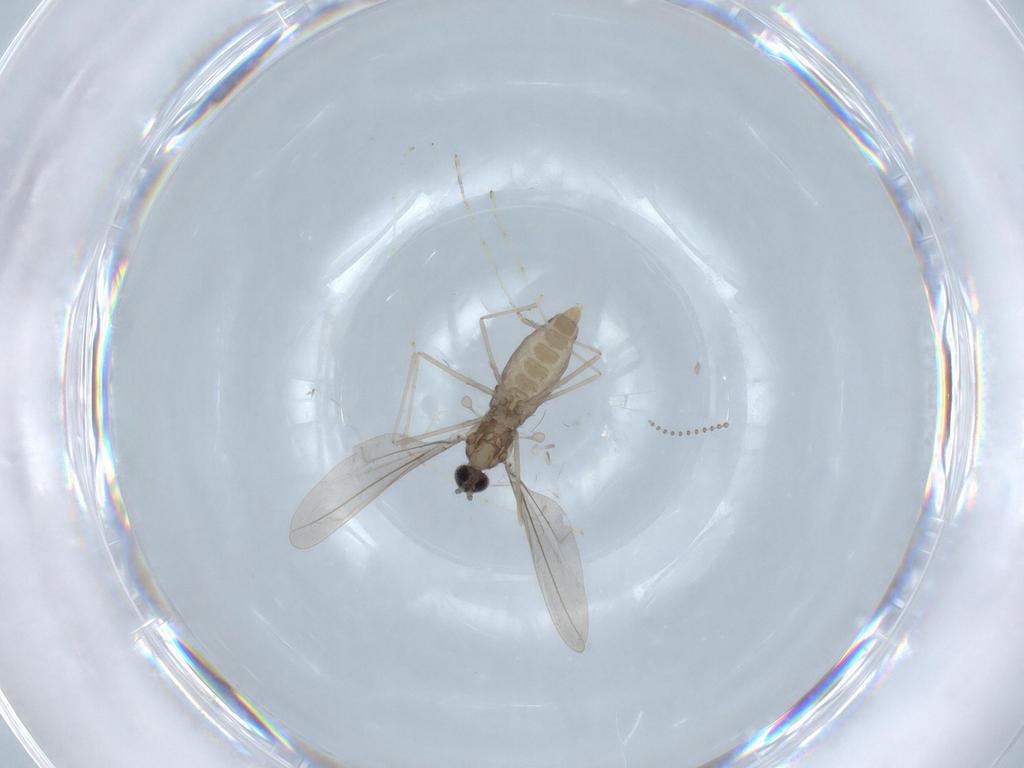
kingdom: Animalia
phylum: Arthropoda
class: Insecta
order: Diptera
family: Cecidomyiidae
